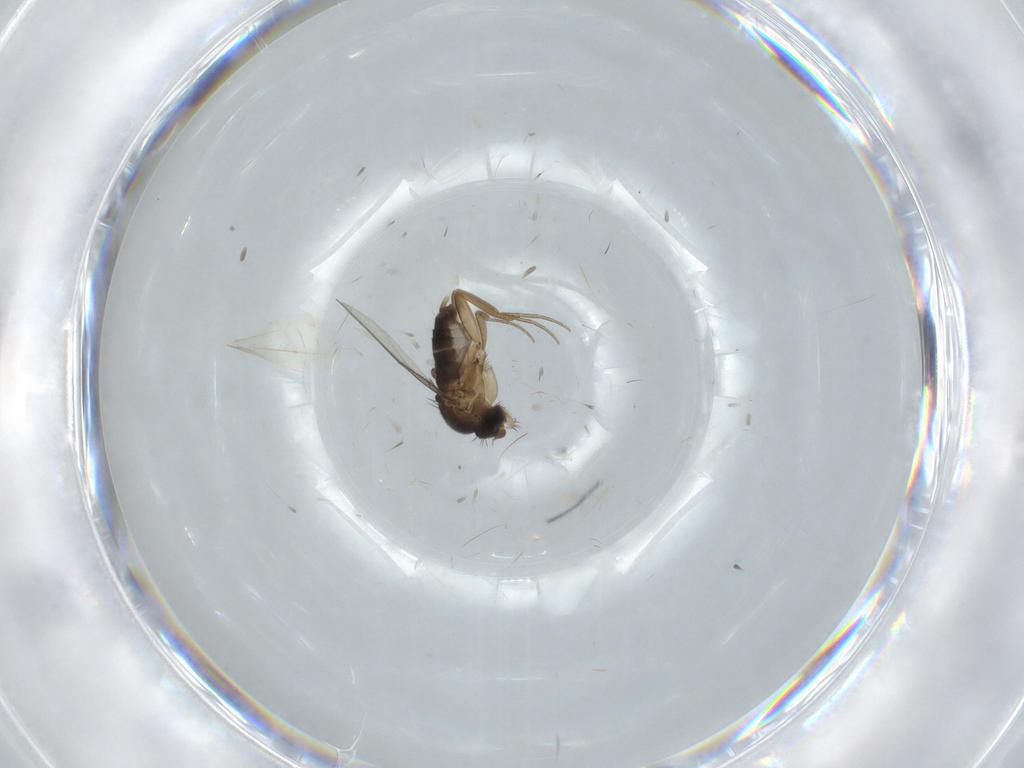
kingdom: Animalia
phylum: Arthropoda
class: Insecta
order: Diptera
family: Phoridae
